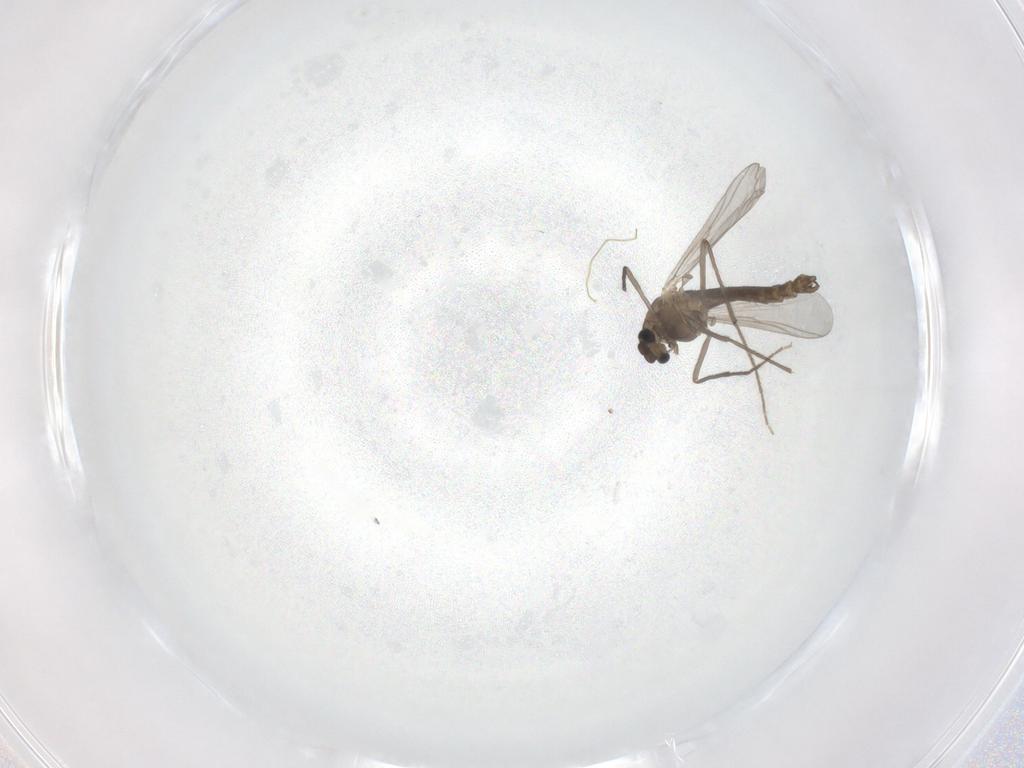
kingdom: Animalia
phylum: Arthropoda
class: Insecta
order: Diptera
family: Chironomidae
